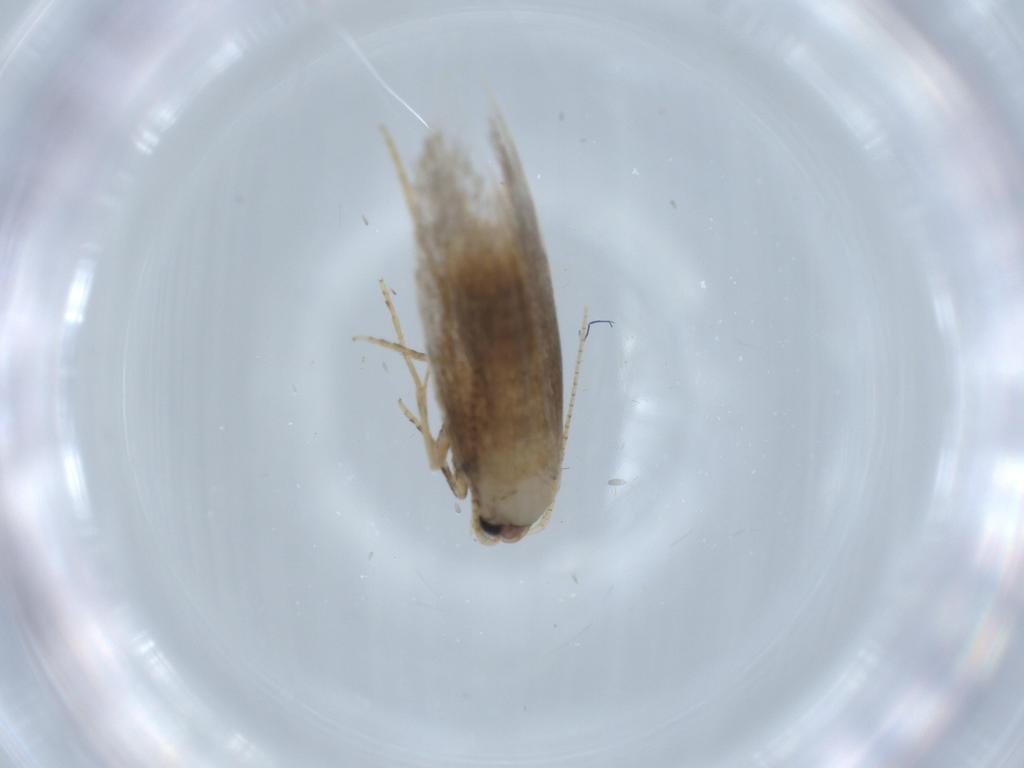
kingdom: Animalia
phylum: Arthropoda
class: Insecta
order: Lepidoptera
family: Tineidae
